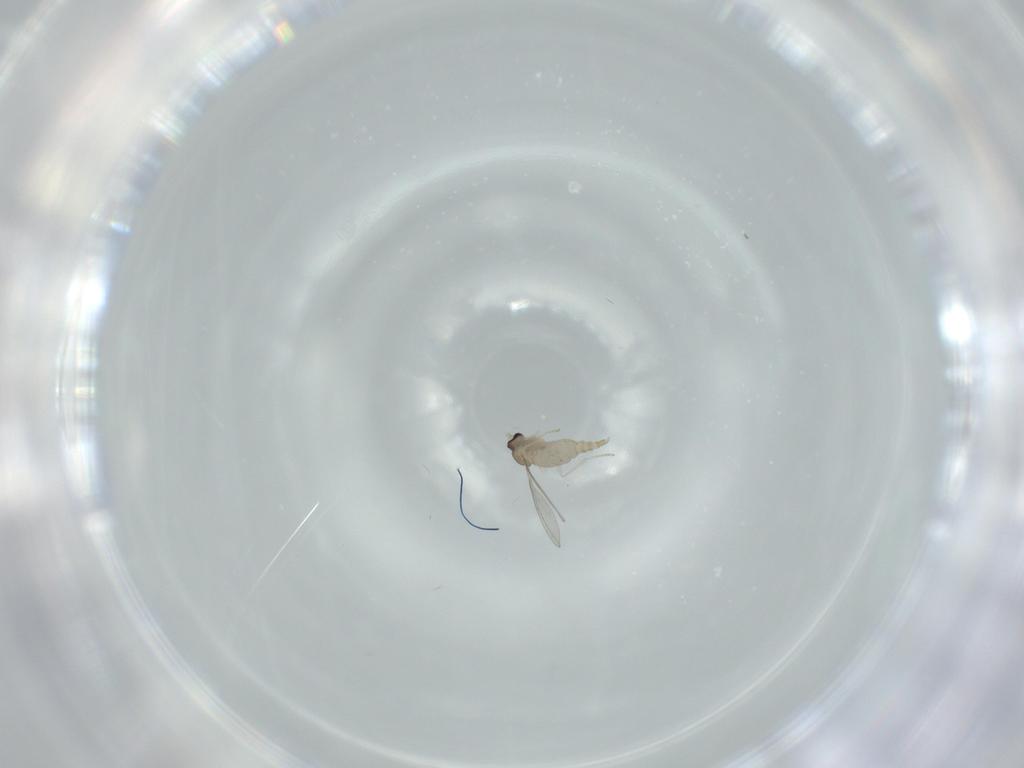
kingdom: Animalia
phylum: Arthropoda
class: Insecta
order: Diptera
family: Cecidomyiidae
